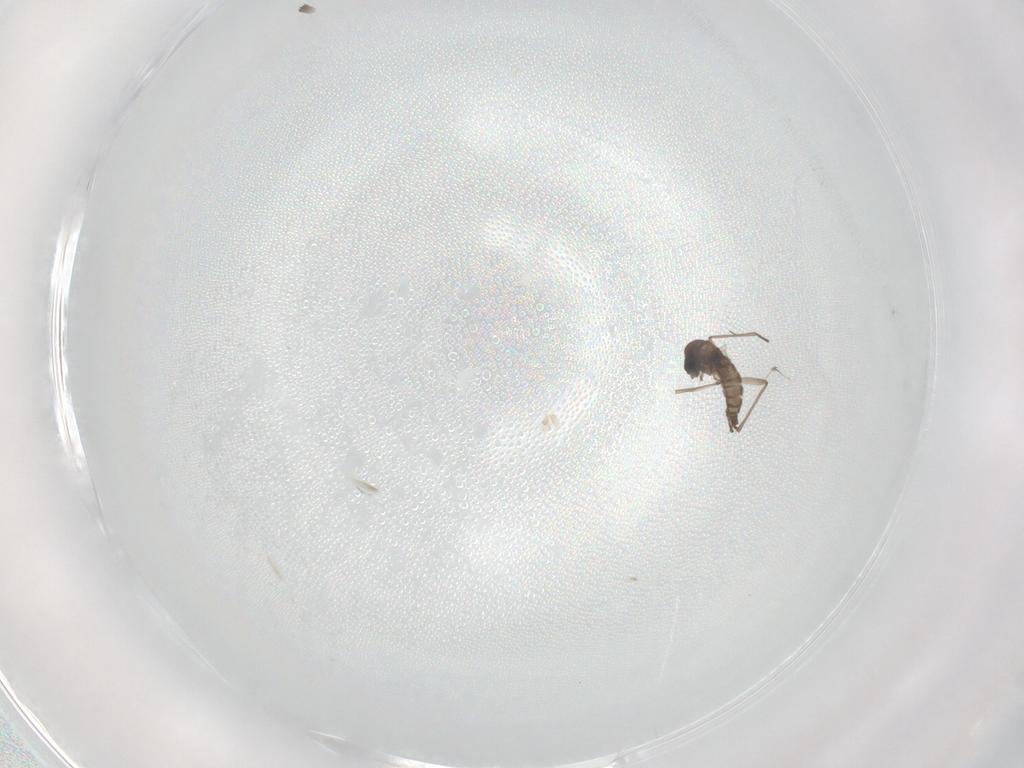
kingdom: Animalia
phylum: Arthropoda
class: Insecta
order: Diptera
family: Sciaridae
